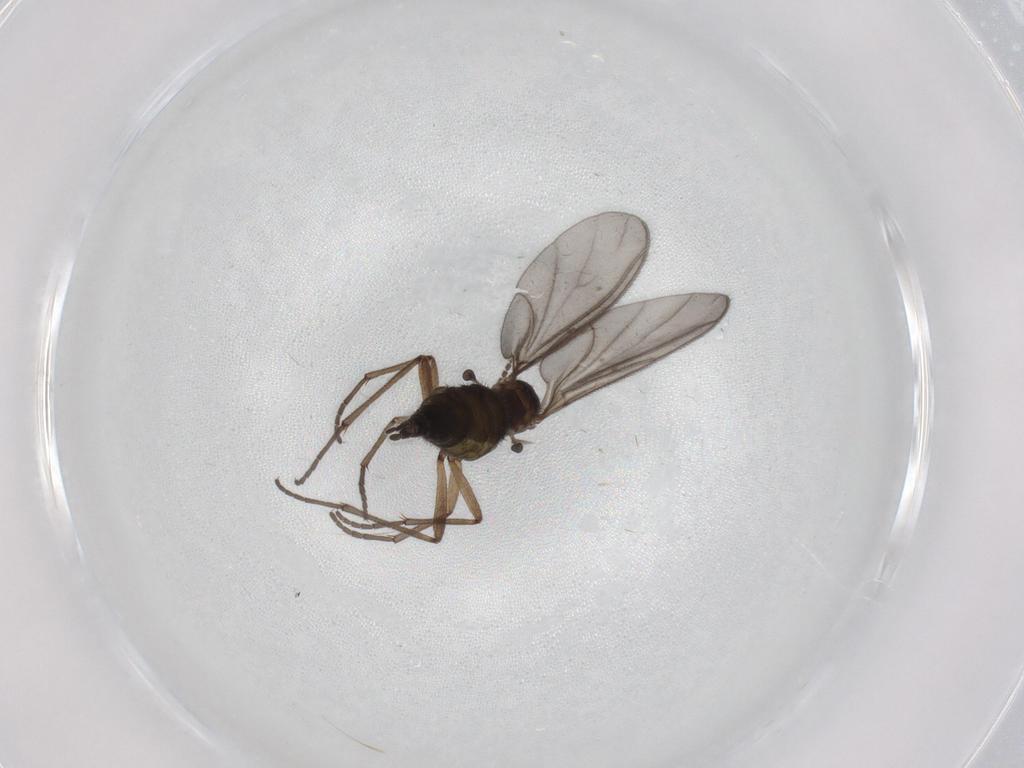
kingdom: Animalia
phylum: Arthropoda
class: Insecta
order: Diptera
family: Sciaridae
